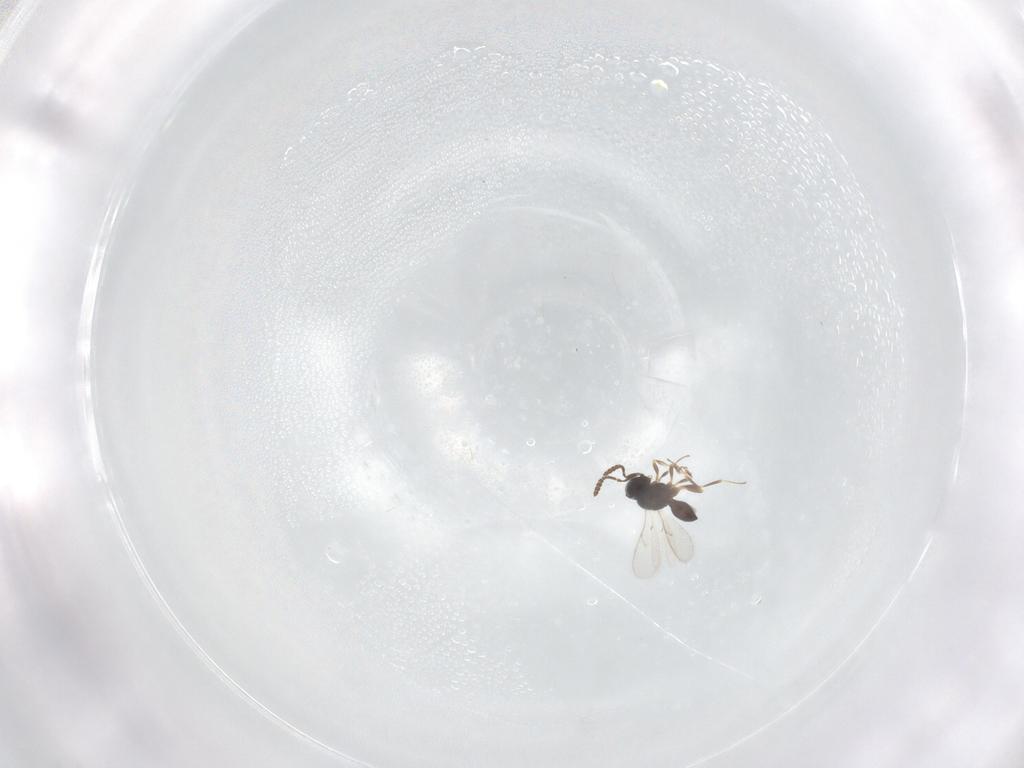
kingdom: Animalia
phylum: Arthropoda
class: Insecta
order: Hymenoptera
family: Scelionidae
